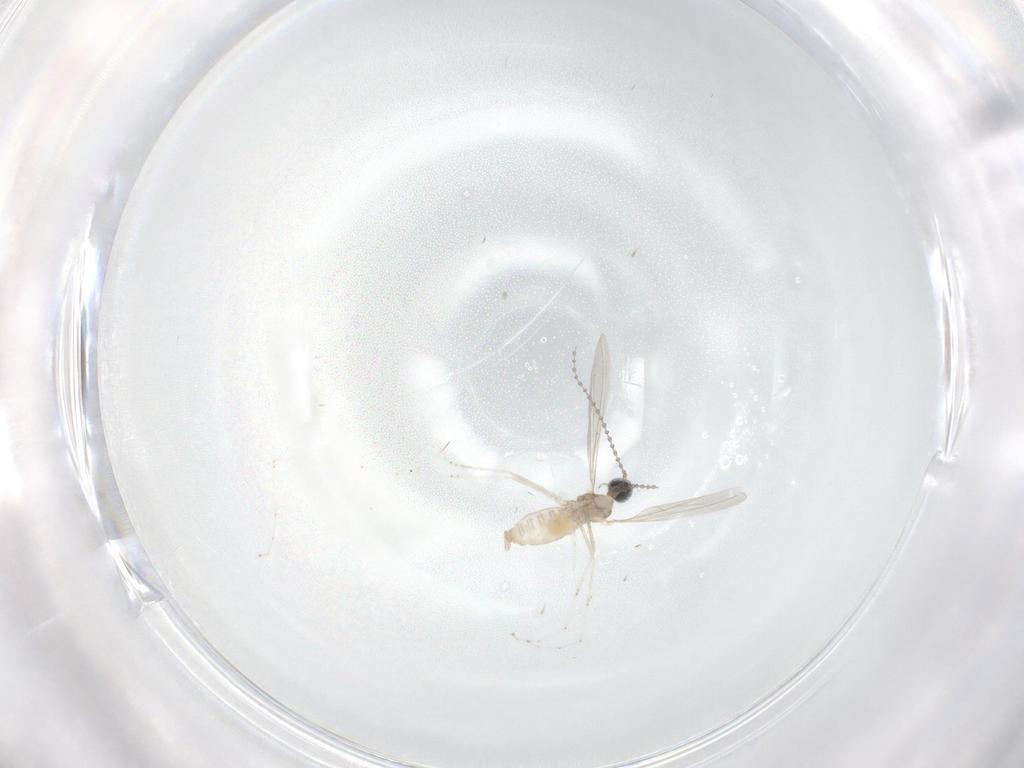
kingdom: Animalia
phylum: Arthropoda
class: Insecta
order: Diptera
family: Cecidomyiidae
